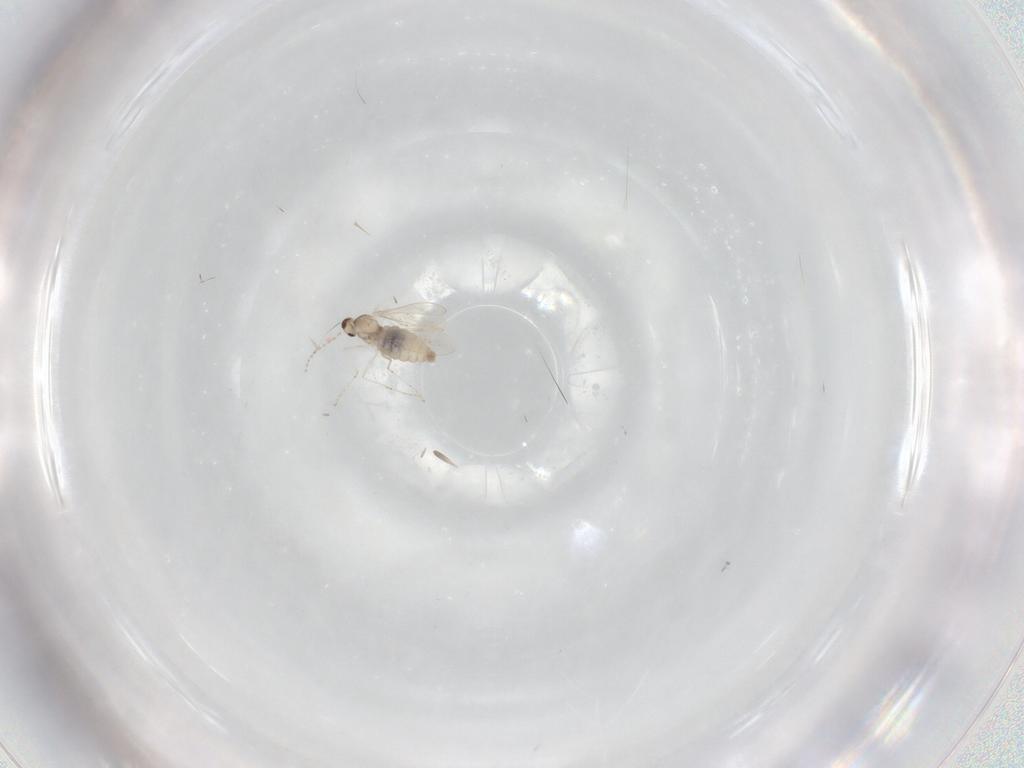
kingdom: Animalia
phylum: Arthropoda
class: Insecta
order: Diptera
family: Cecidomyiidae
